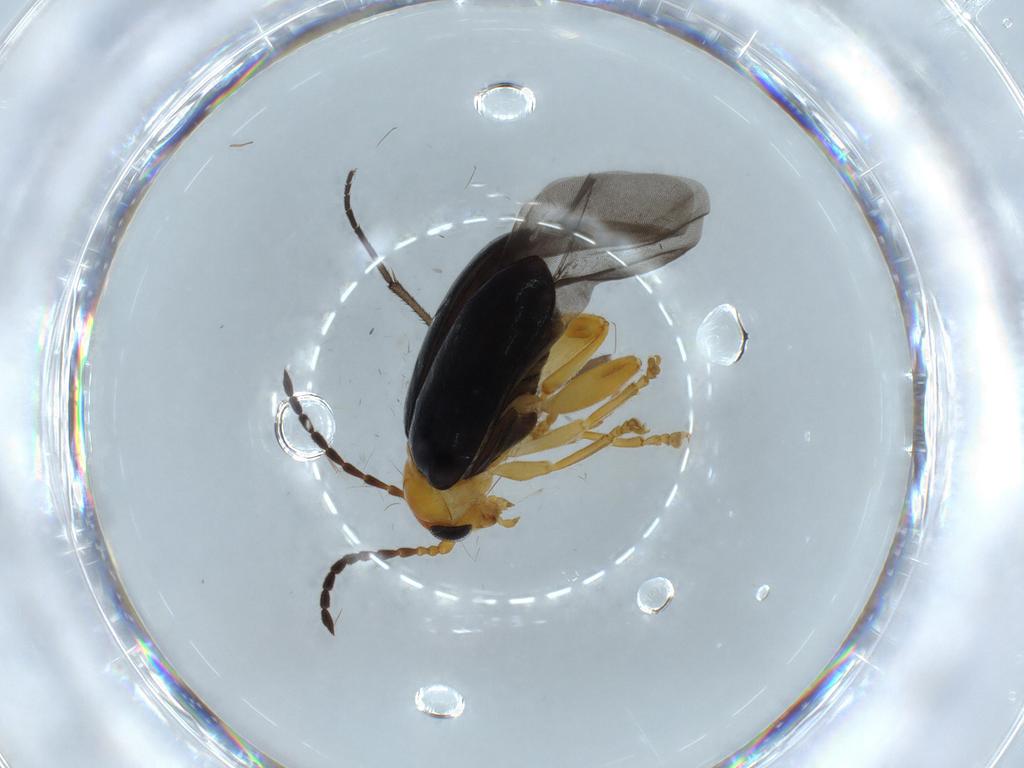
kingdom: Animalia
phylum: Arthropoda
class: Insecta
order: Coleoptera
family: Chrysomelidae
